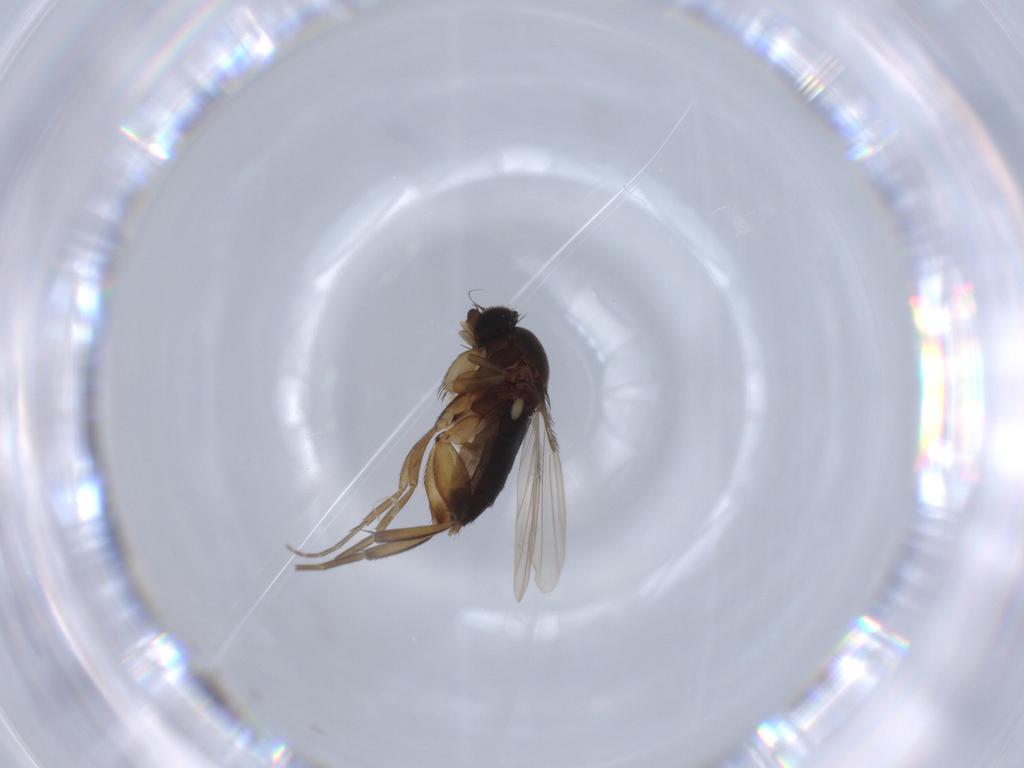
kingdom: Animalia
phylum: Arthropoda
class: Insecta
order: Diptera
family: Phoridae
